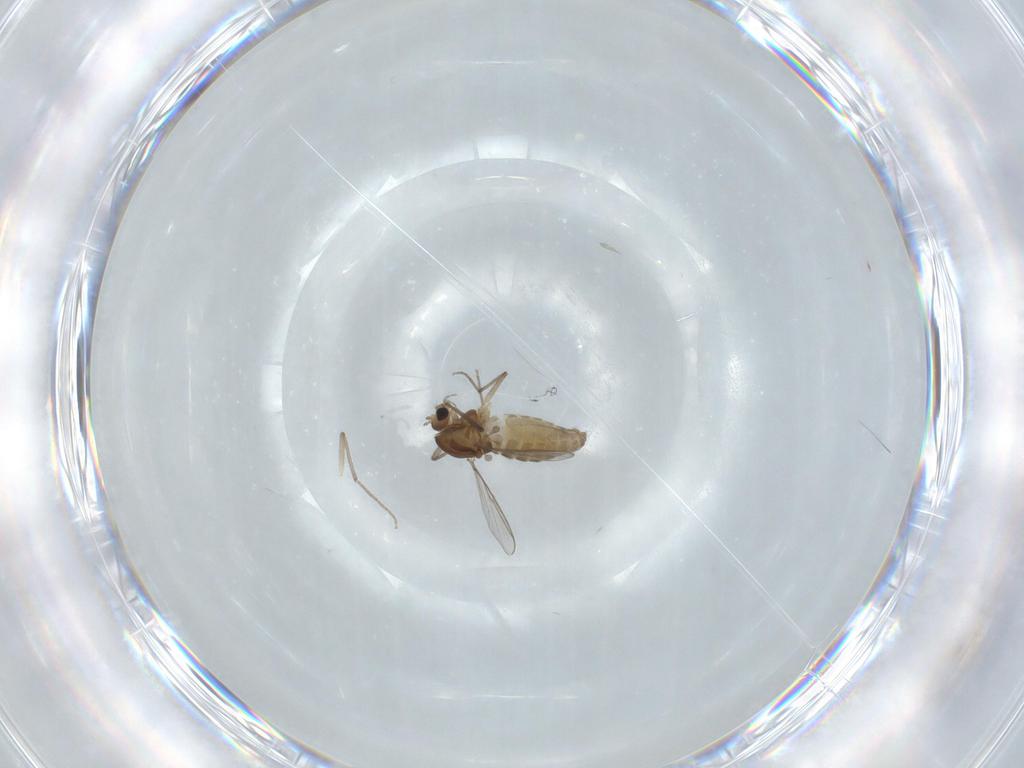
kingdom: Animalia
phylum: Arthropoda
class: Insecta
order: Diptera
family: Chironomidae
